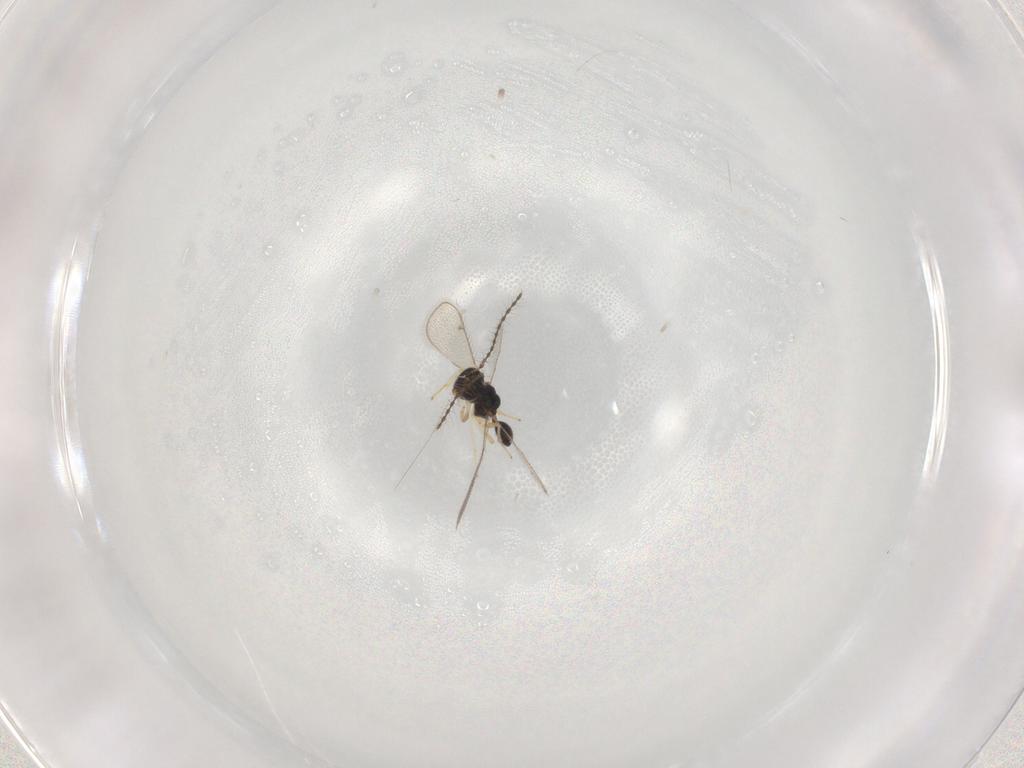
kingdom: Animalia
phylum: Arthropoda
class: Insecta
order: Hymenoptera
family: Diparidae
